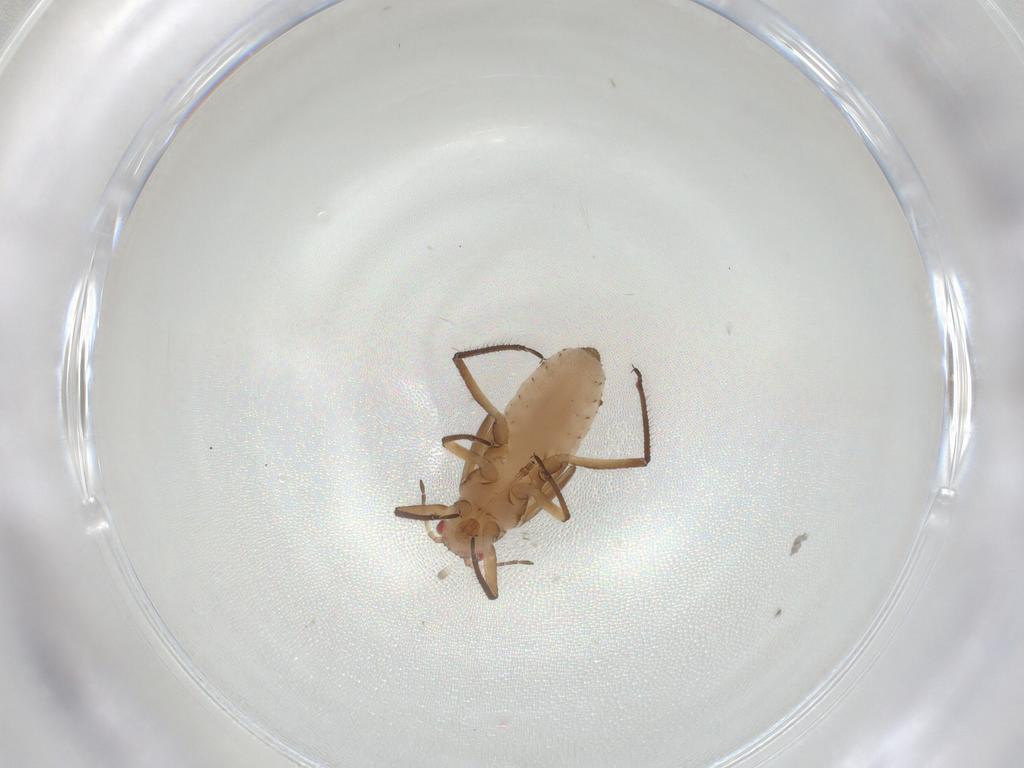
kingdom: Animalia
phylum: Arthropoda
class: Insecta
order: Hemiptera
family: Aphididae
